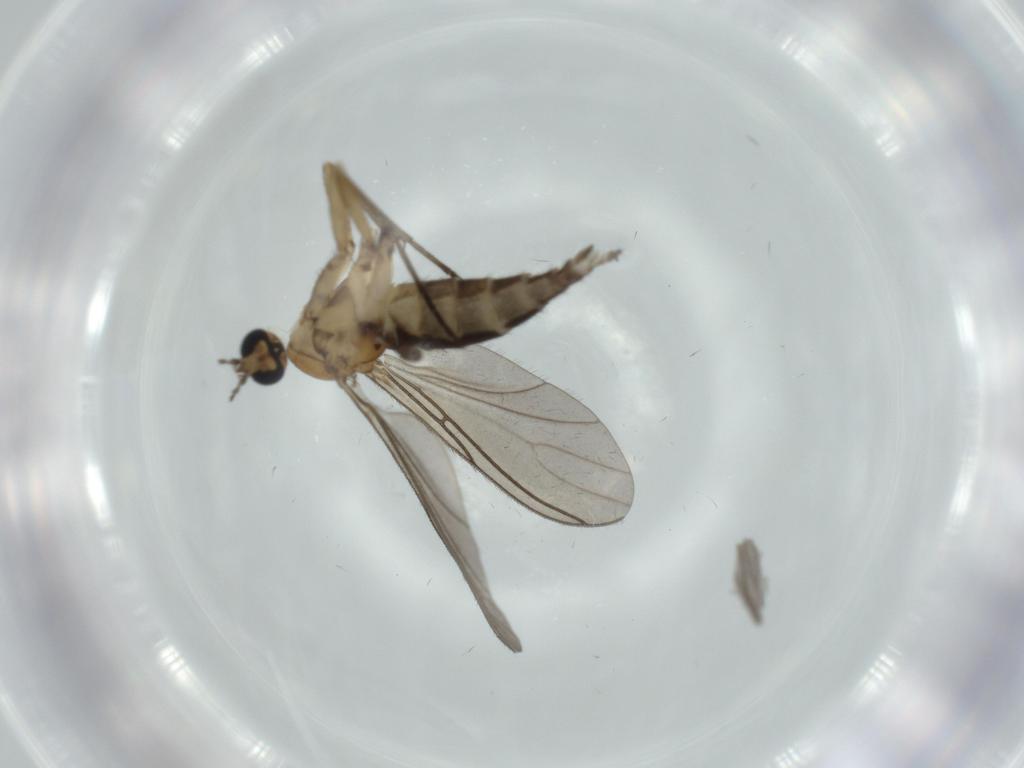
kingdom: Animalia
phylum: Arthropoda
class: Insecta
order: Diptera
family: Sciaridae
